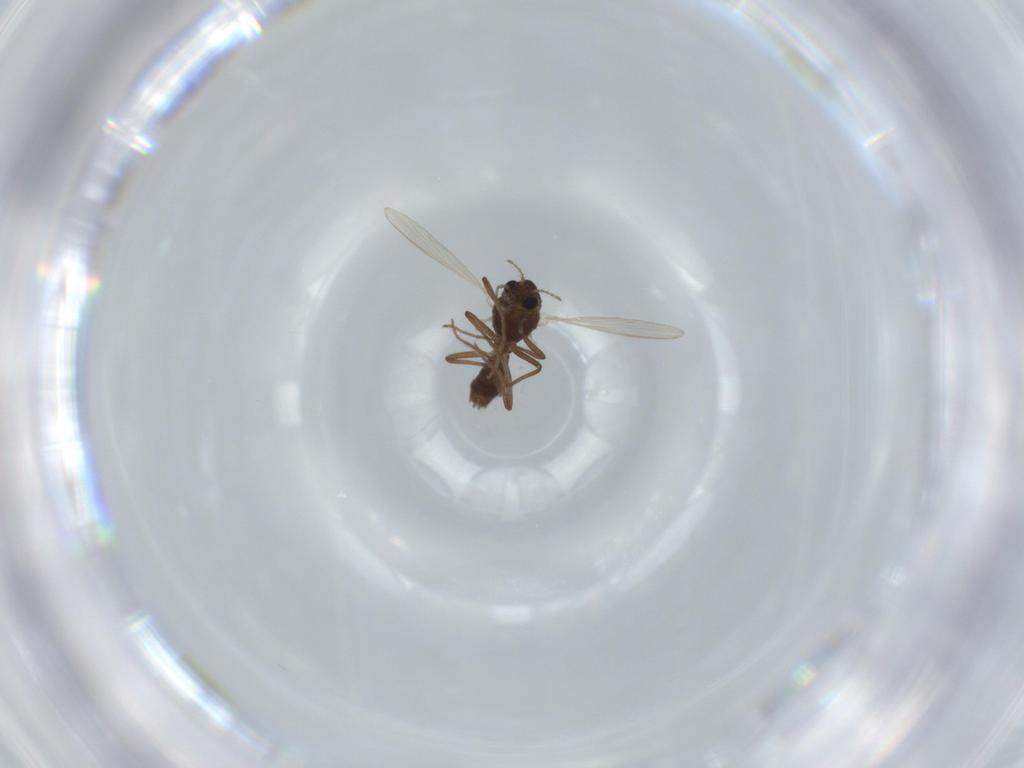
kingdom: Animalia
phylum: Arthropoda
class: Insecta
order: Diptera
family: Chironomidae
